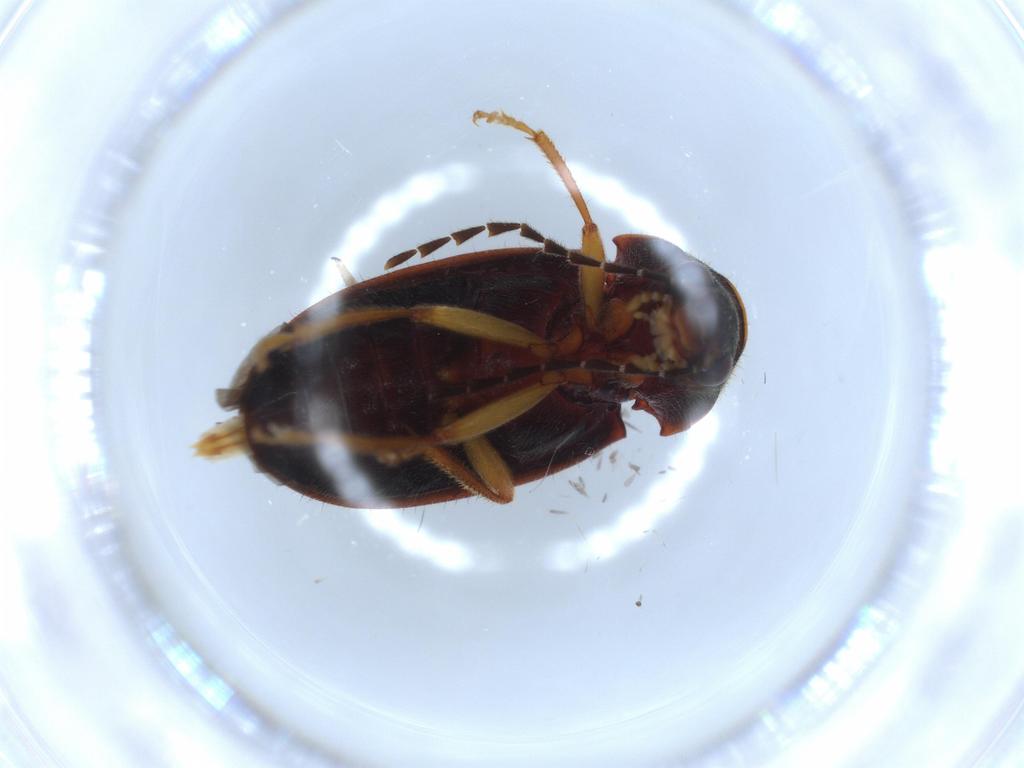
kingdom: Animalia
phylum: Arthropoda
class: Insecta
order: Coleoptera
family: Ptilodactylidae
